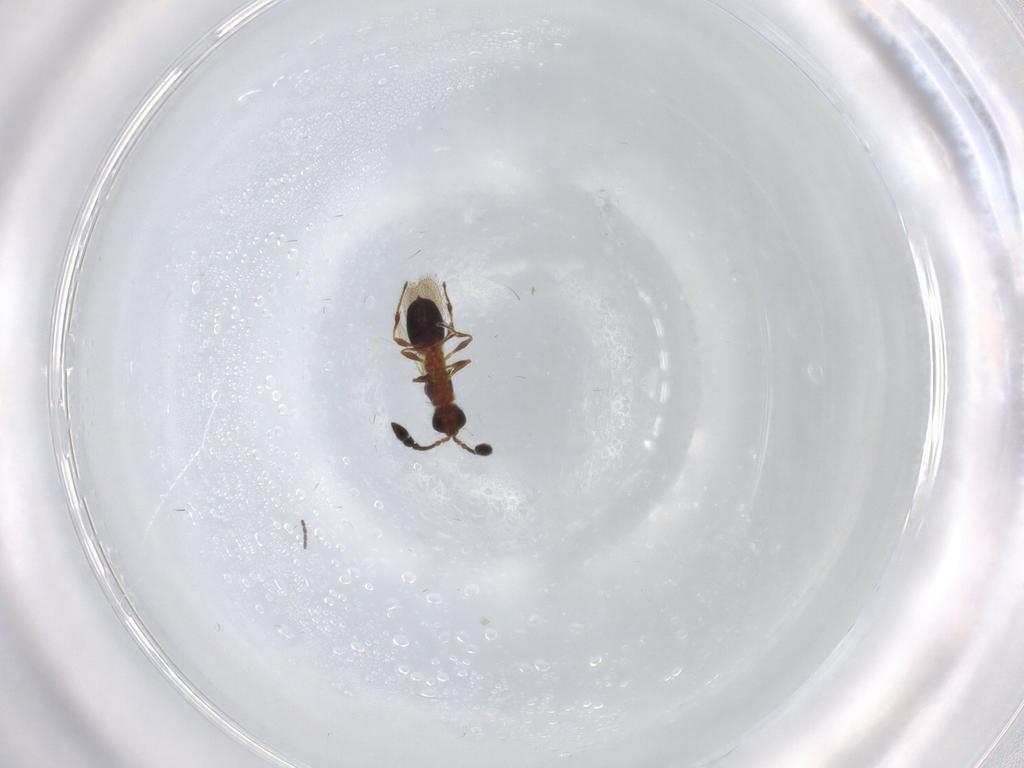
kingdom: Animalia
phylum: Arthropoda
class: Insecta
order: Hymenoptera
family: Diapriidae
